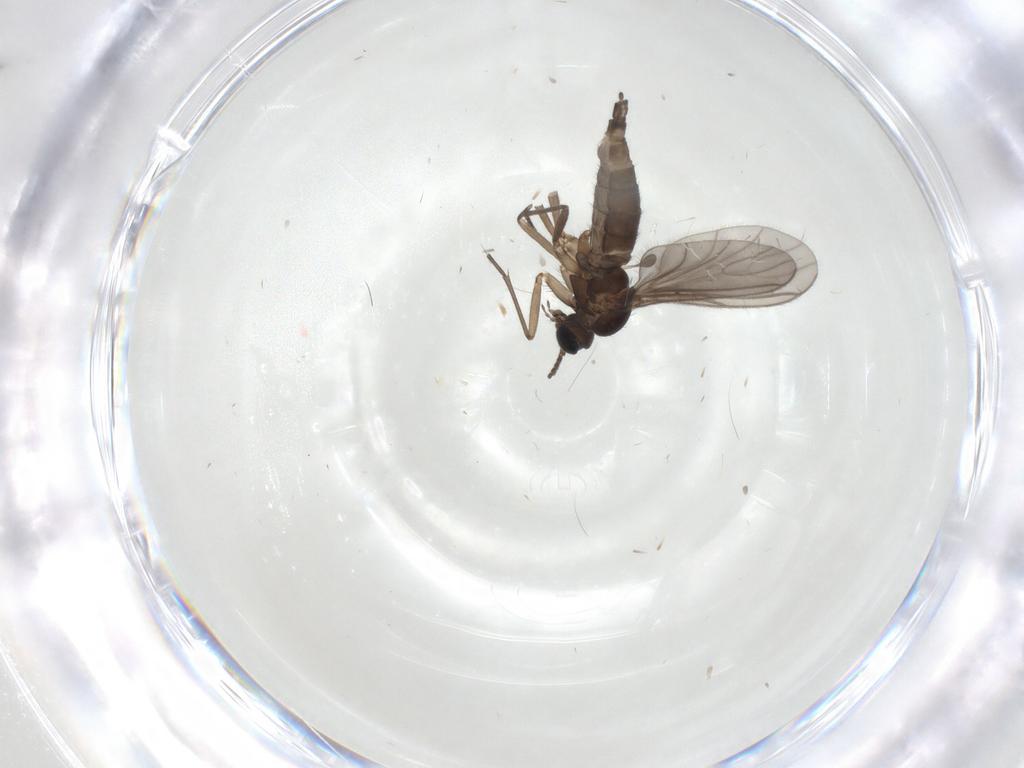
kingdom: Animalia
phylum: Arthropoda
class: Insecta
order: Diptera
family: Sciaridae
